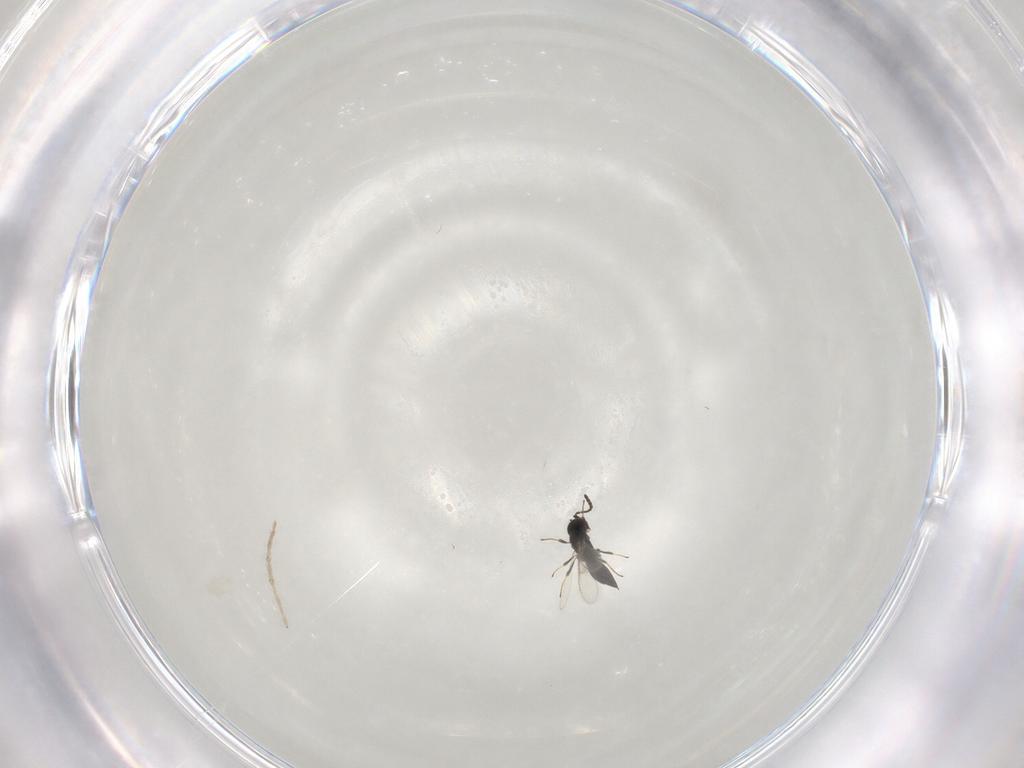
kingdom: Animalia
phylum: Arthropoda
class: Insecta
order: Hymenoptera
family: Scelionidae
